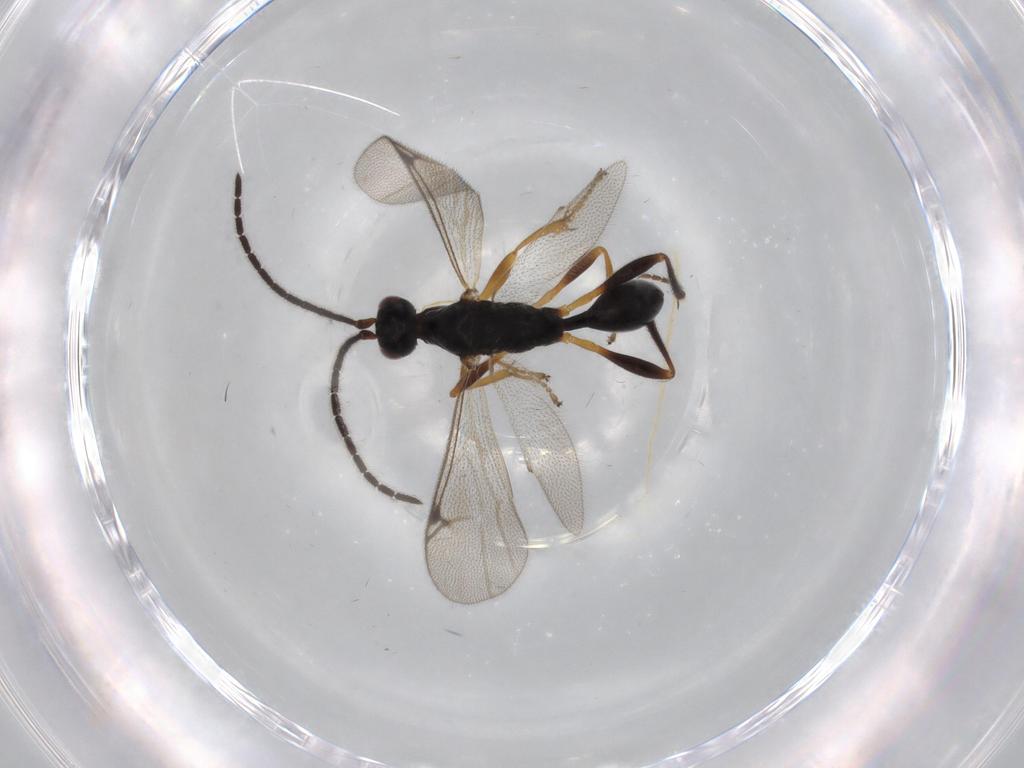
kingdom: Animalia
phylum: Arthropoda
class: Insecta
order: Hymenoptera
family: Proctotrupidae
